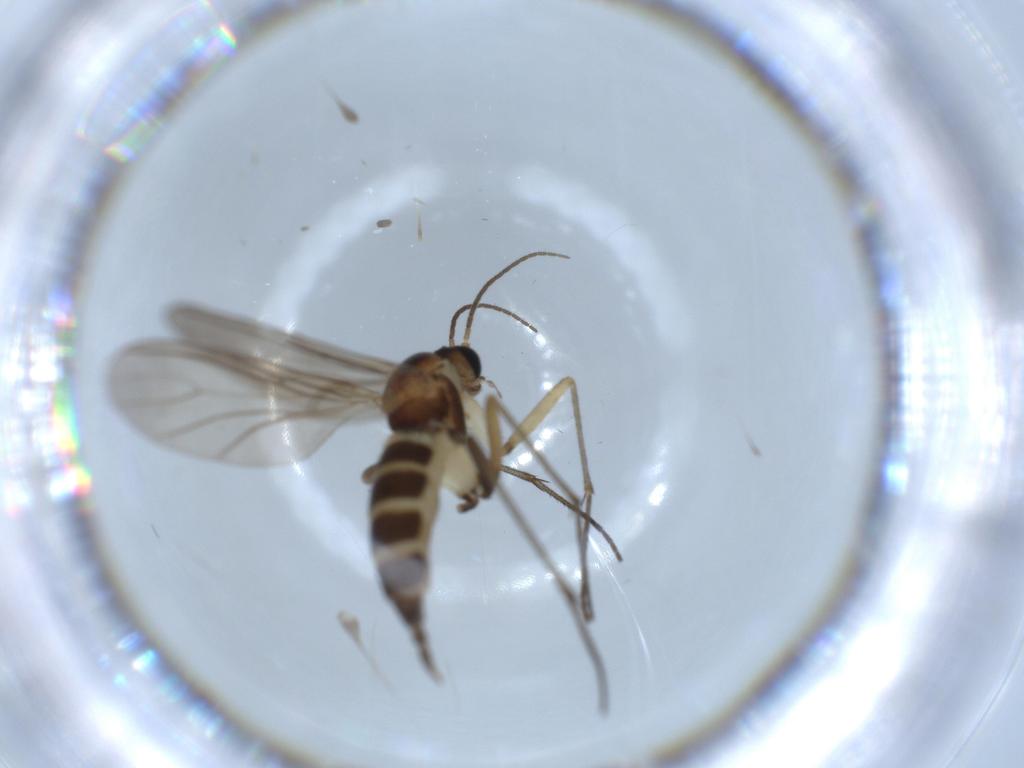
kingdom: Animalia
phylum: Arthropoda
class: Insecta
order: Diptera
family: Sciaridae
